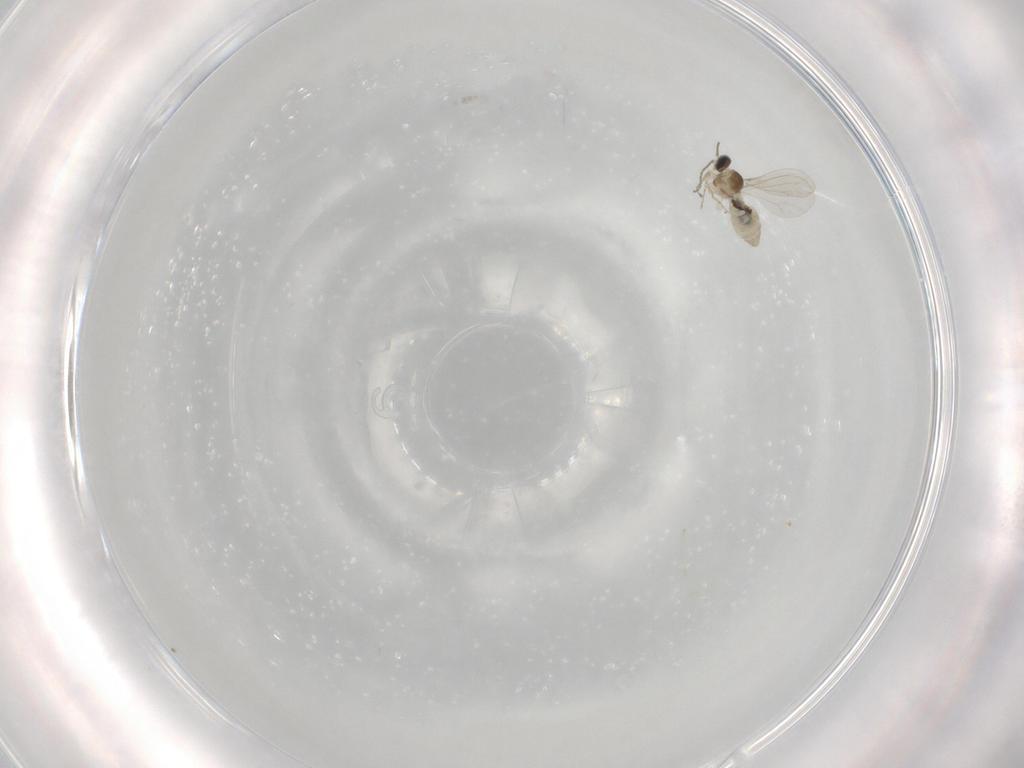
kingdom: Animalia
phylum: Arthropoda
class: Insecta
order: Diptera
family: Cecidomyiidae
